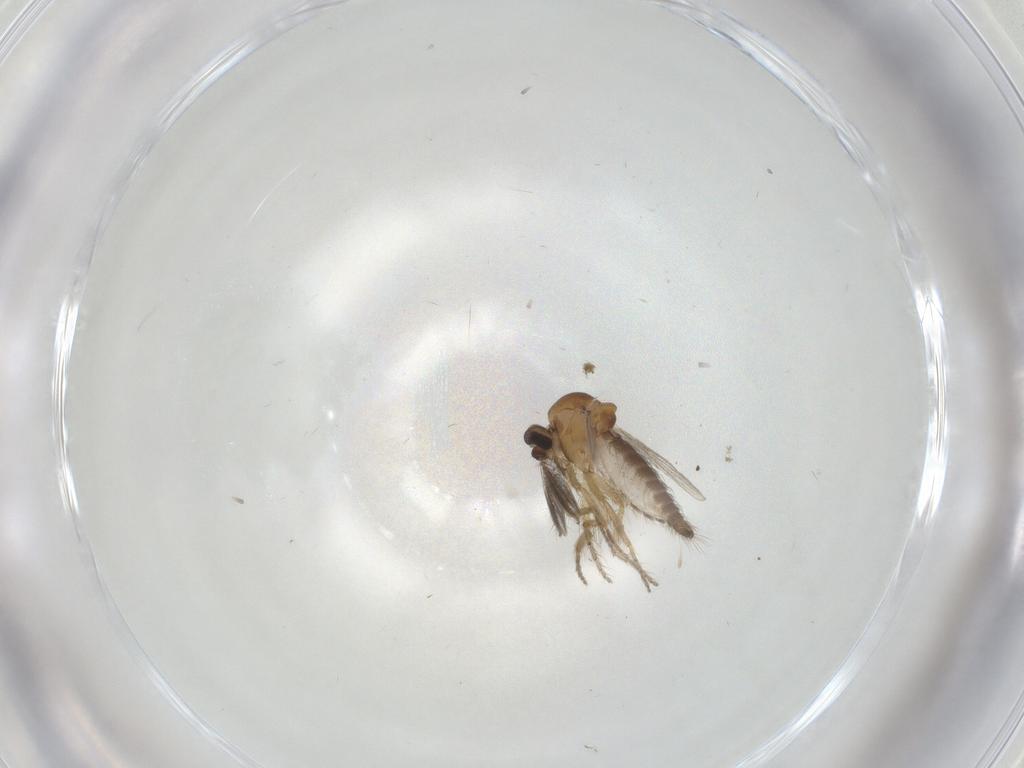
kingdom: Animalia
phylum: Arthropoda
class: Insecta
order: Diptera
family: Ceratopogonidae
